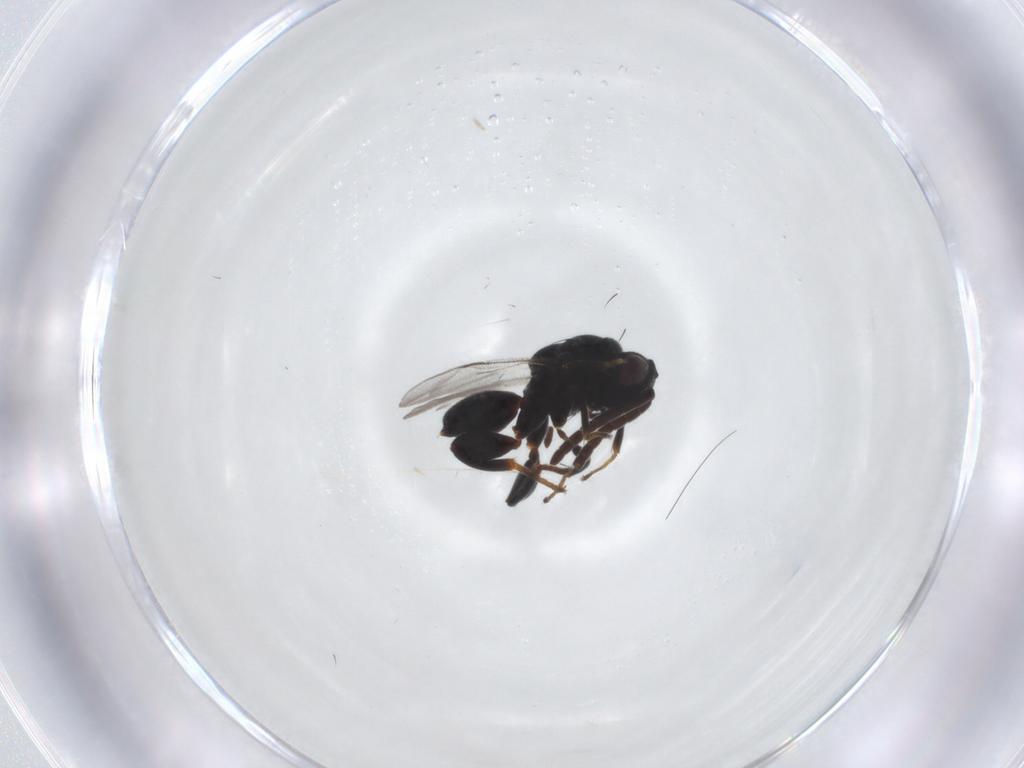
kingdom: Animalia
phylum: Arthropoda
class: Insecta
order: Hymenoptera
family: Chalcididae
